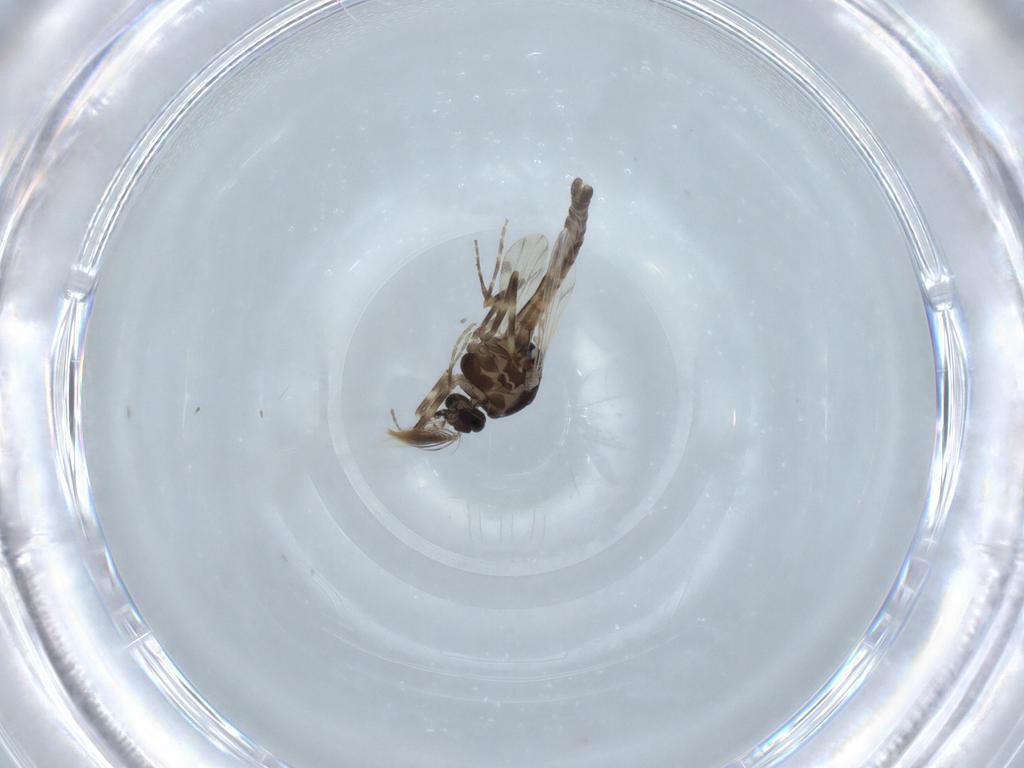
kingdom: Animalia
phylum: Arthropoda
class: Insecta
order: Diptera
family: Ceratopogonidae
